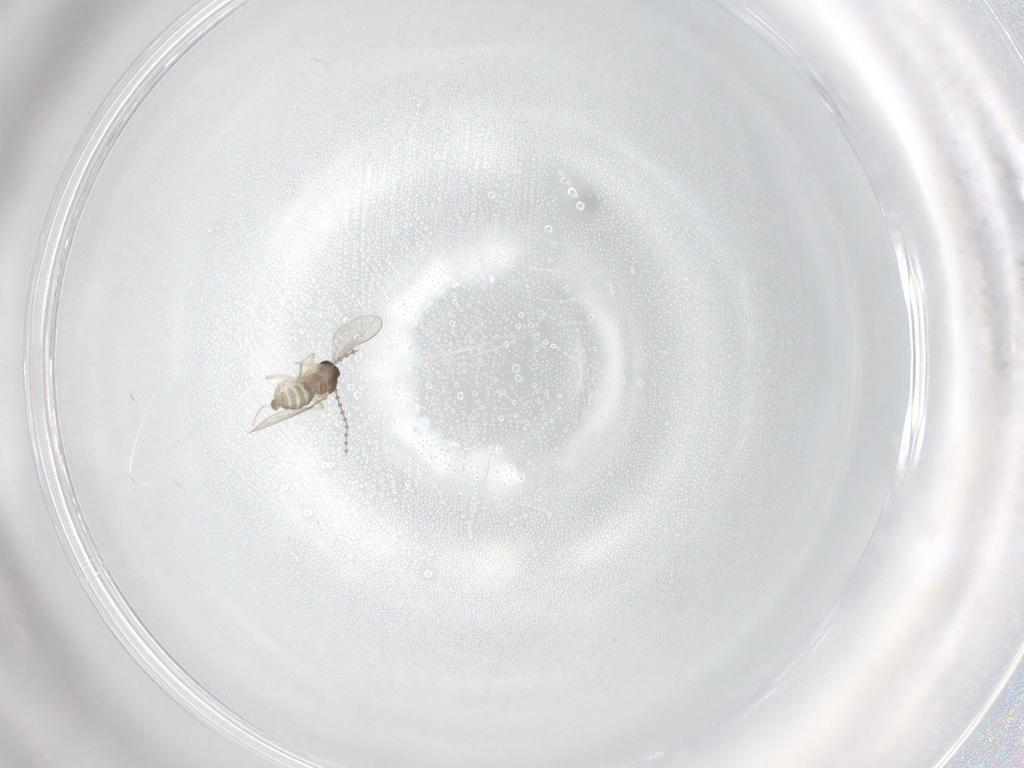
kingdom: Animalia
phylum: Arthropoda
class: Insecta
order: Diptera
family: Cecidomyiidae
